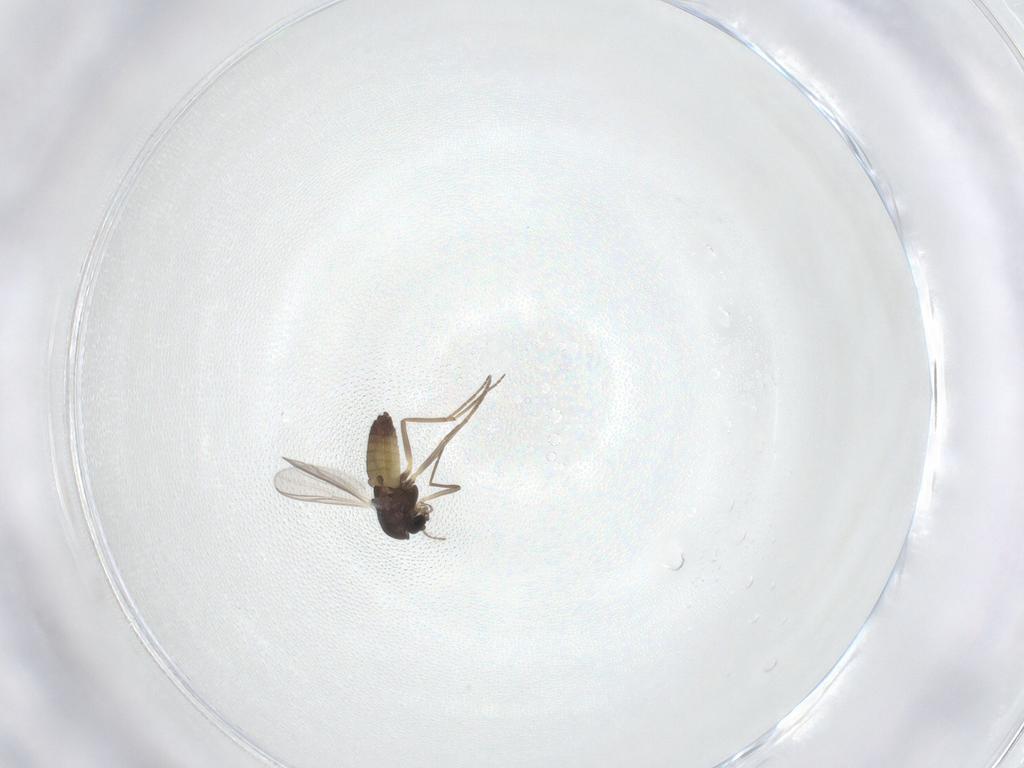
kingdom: Animalia
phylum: Arthropoda
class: Insecta
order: Diptera
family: Chironomidae
